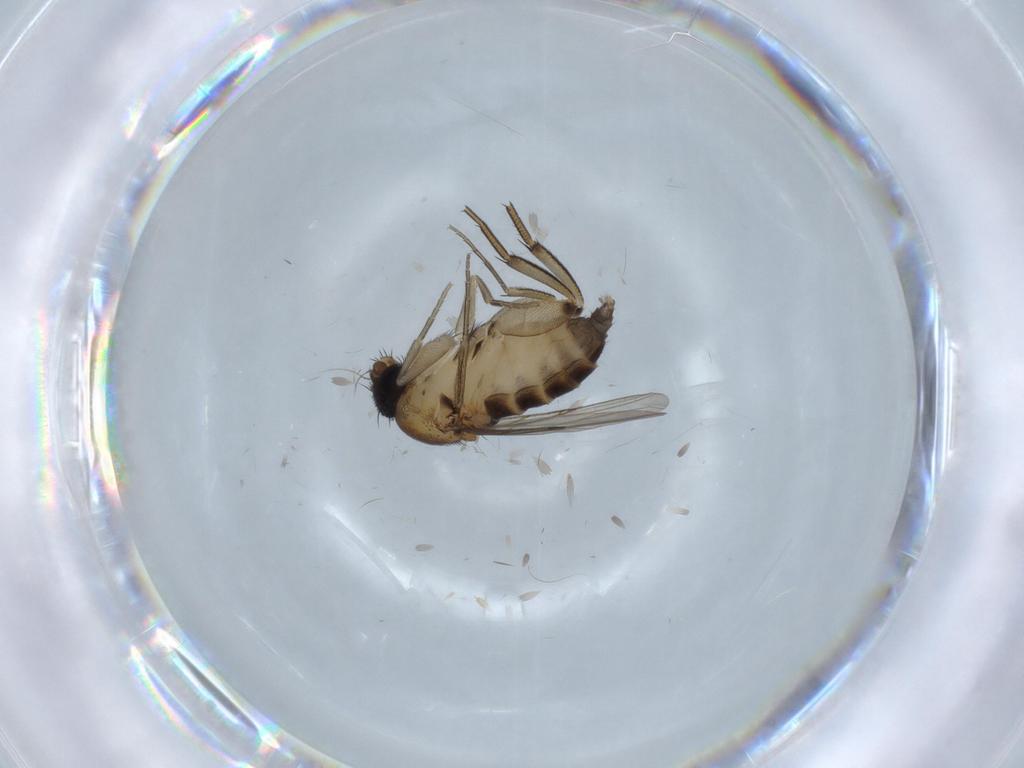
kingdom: Animalia
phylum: Arthropoda
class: Insecta
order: Diptera
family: Phoridae
